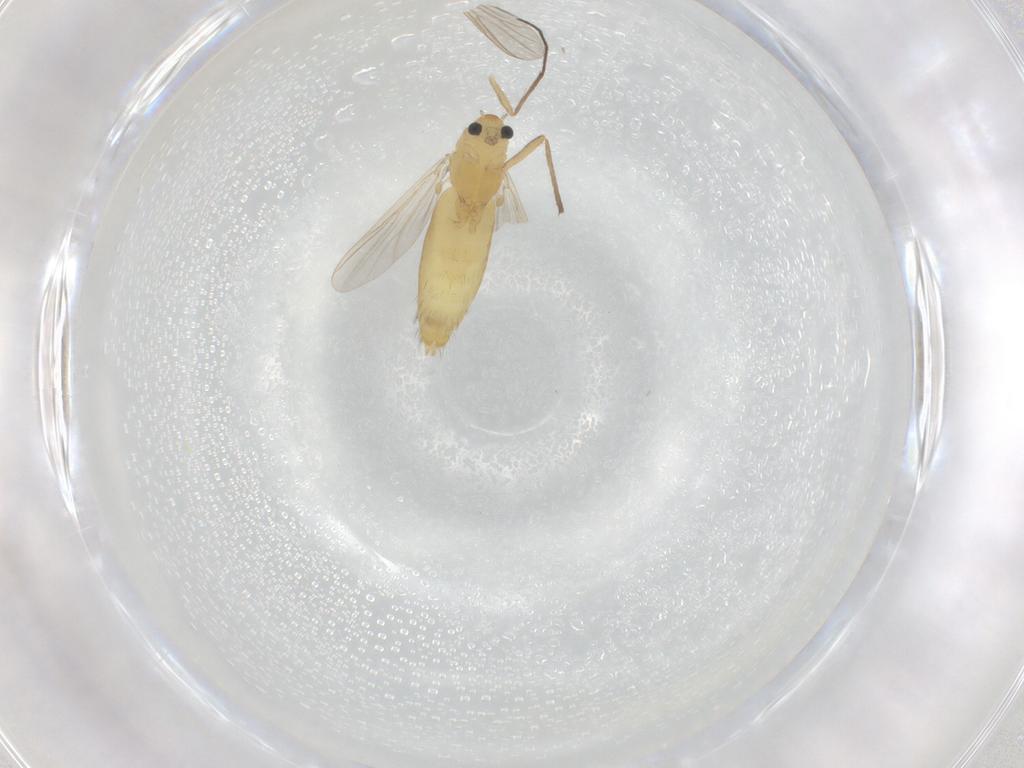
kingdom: Animalia
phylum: Arthropoda
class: Insecta
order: Diptera
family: Chironomidae
